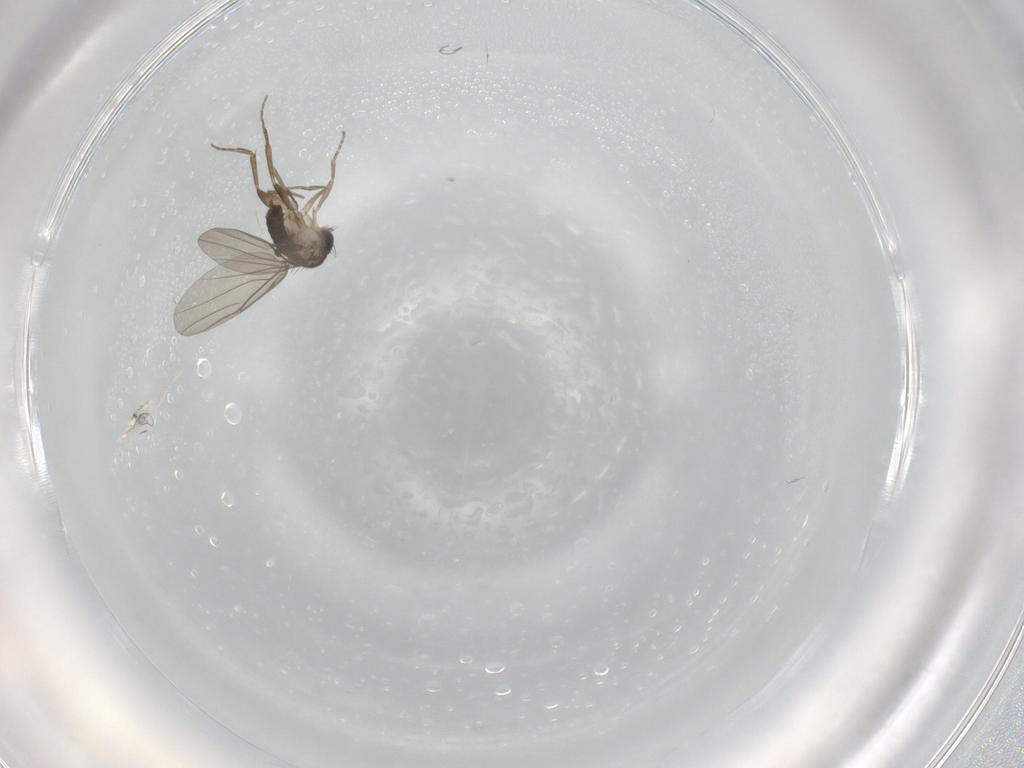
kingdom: Animalia
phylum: Arthropoda
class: Insecta
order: Diptera
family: Phoridae
